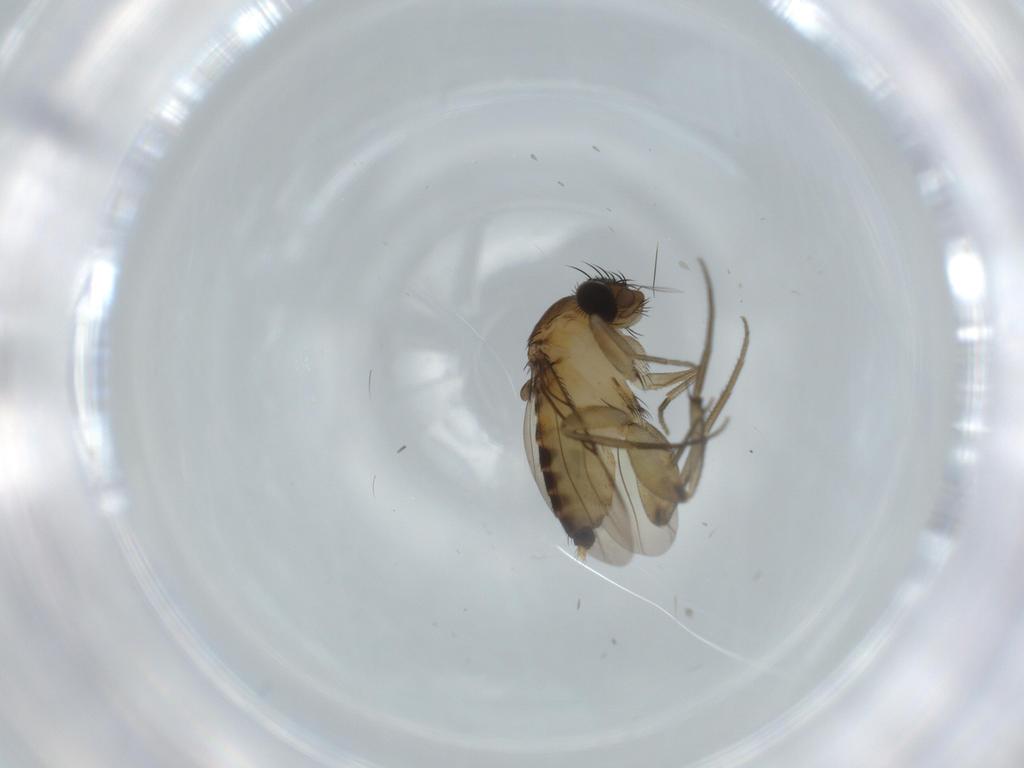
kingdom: Animalia
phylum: Arthropoda
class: Insecta
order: Diptera
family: Phoridae
